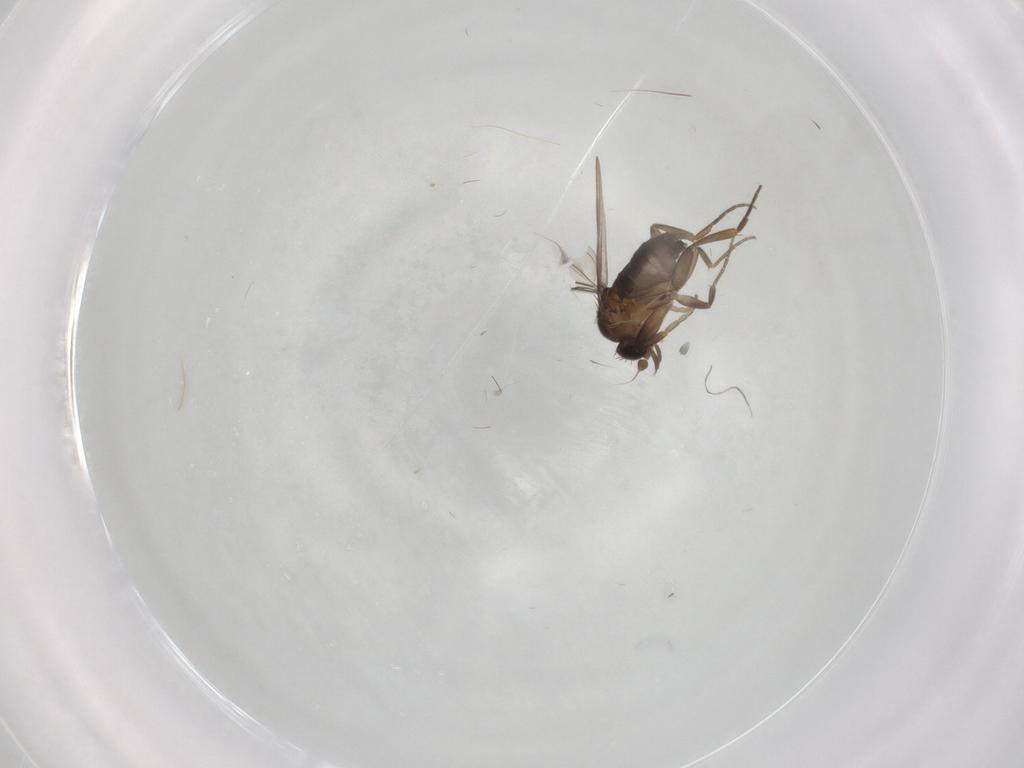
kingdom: Animalia
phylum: Arthropoda
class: Insecta
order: Diptera
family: Phoridae
